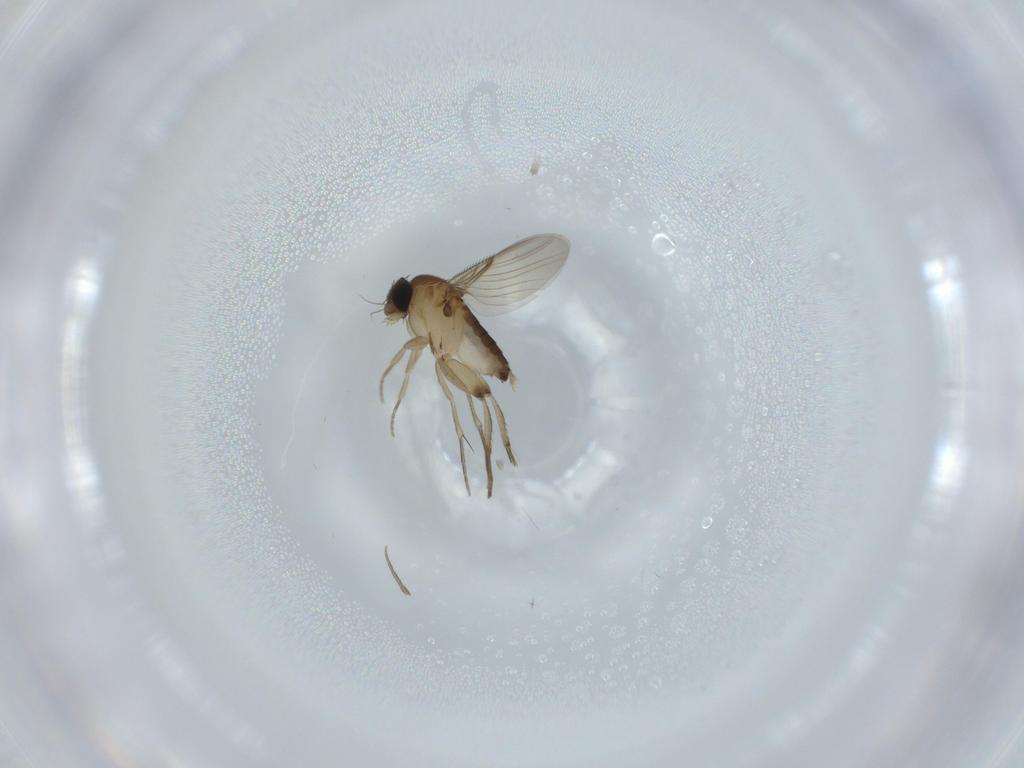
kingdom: Animalia
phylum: Arthropoda
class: Insecta
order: Diptera
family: Phoridae
